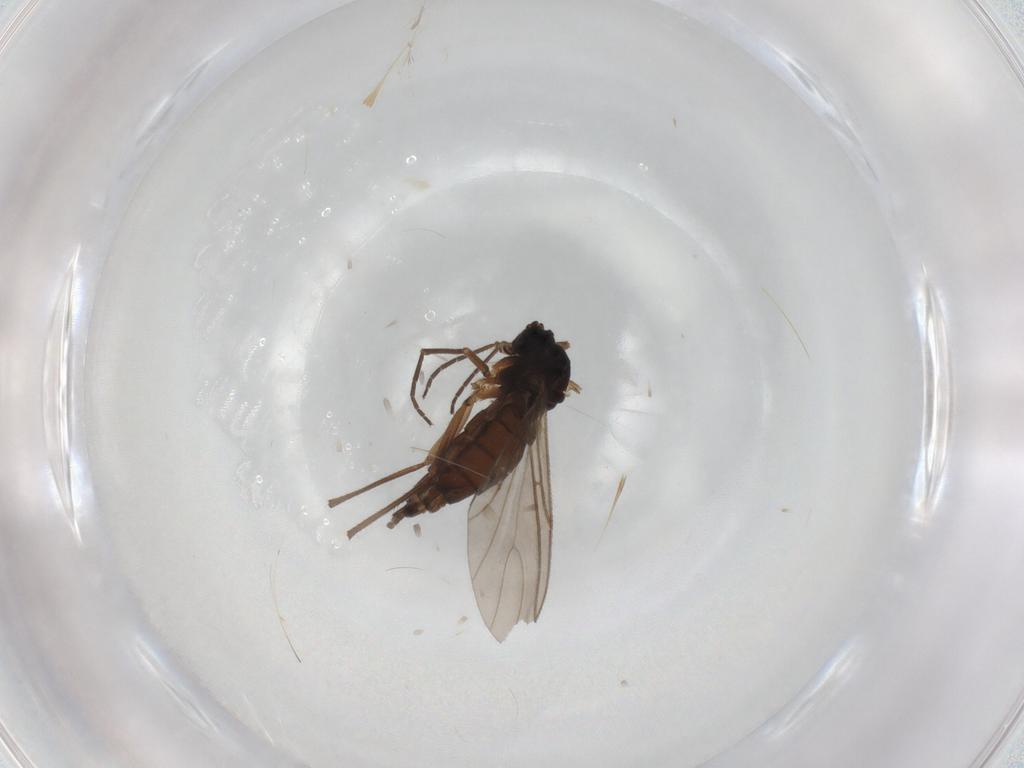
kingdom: Animalia
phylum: Arthropoda
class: Insecta
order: Diptera
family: Sciaridae
